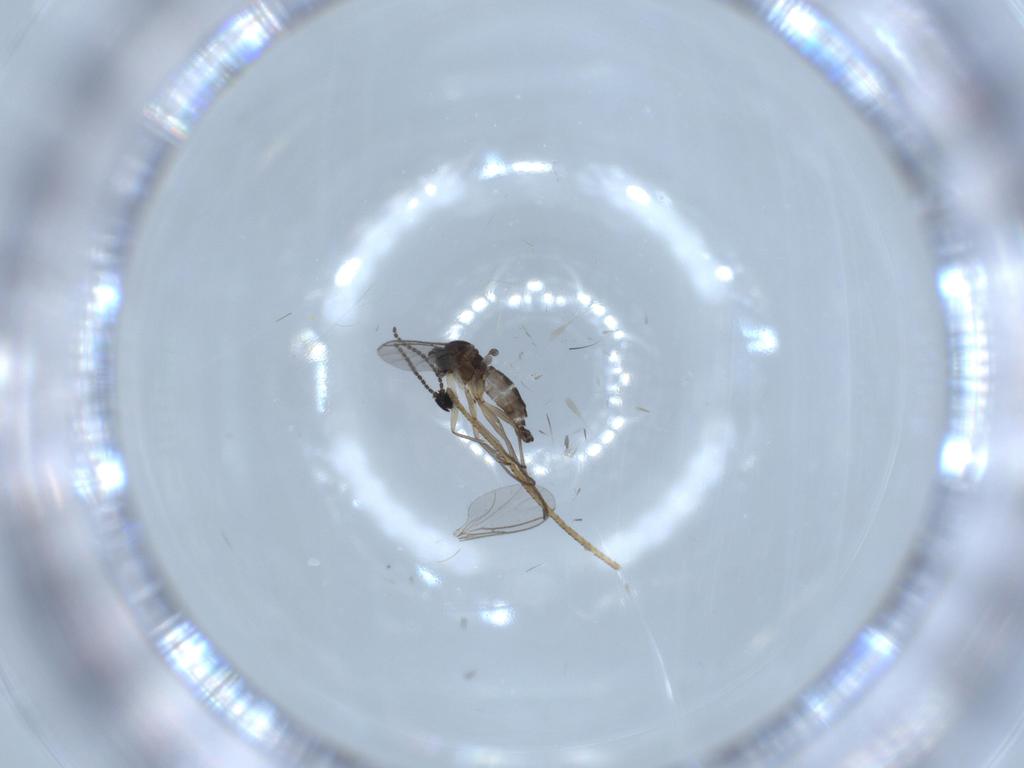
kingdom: Animalia
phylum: Arthropoda
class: Insecta
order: Diptera
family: Sciaridae
